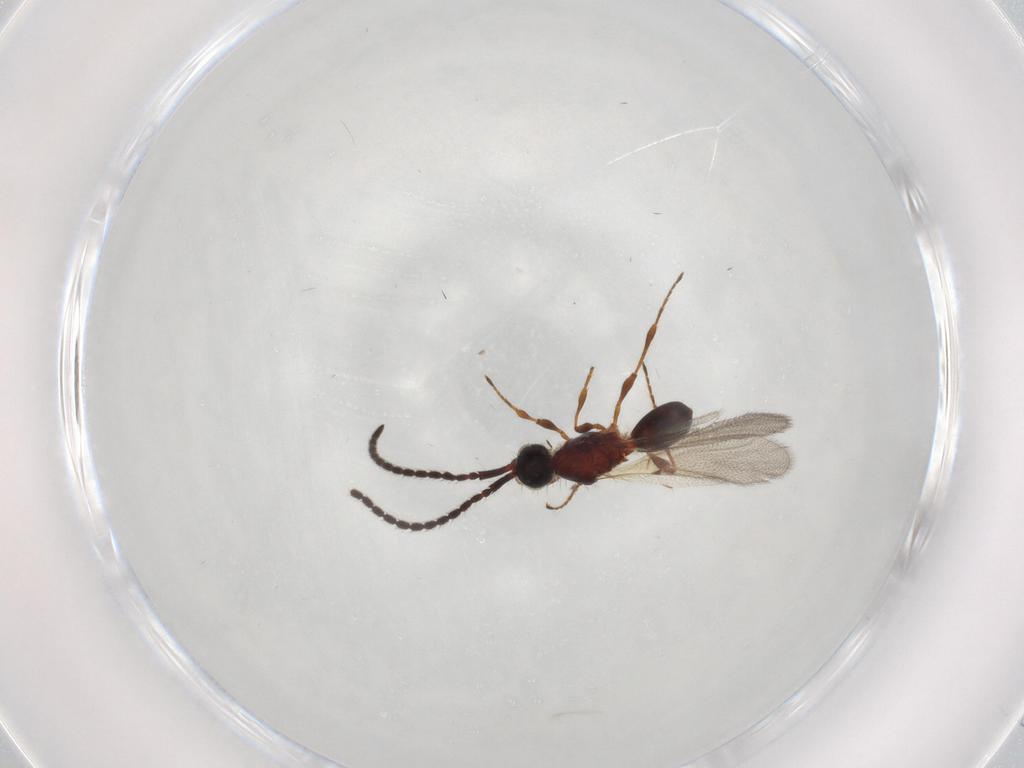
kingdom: Animalia
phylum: Arthropoda
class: Insecta
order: Hymenoptera
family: Diapriidae
